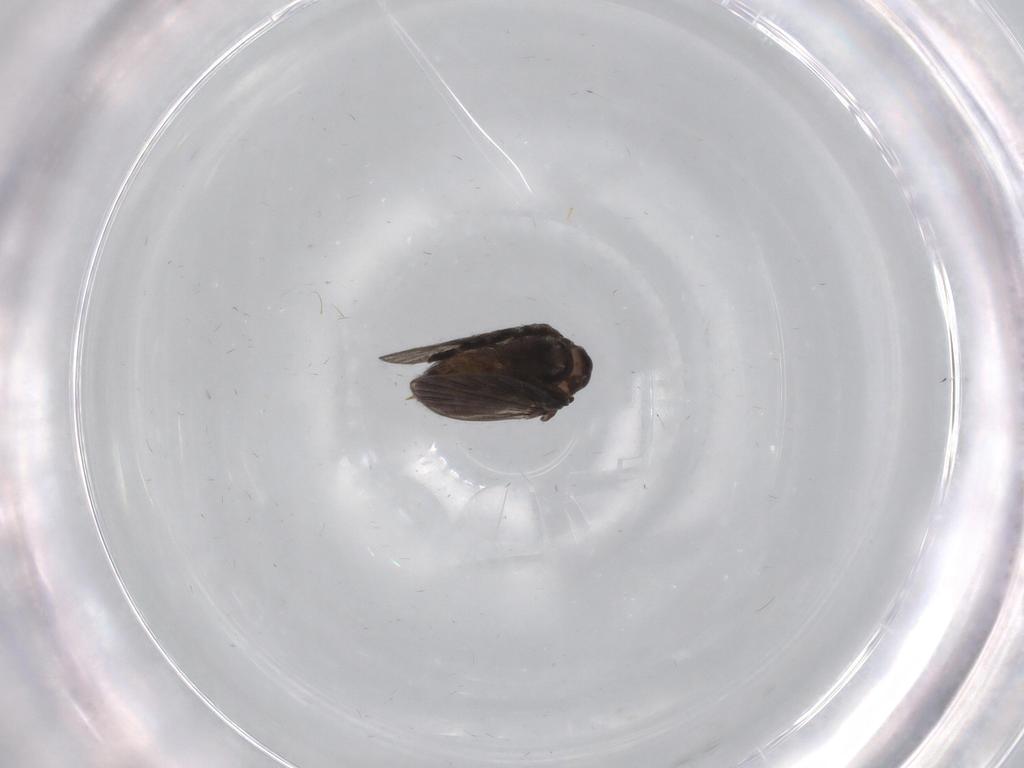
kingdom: Animalia
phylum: Arthropoda
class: Insecta
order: Diptera
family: Psychodidae
